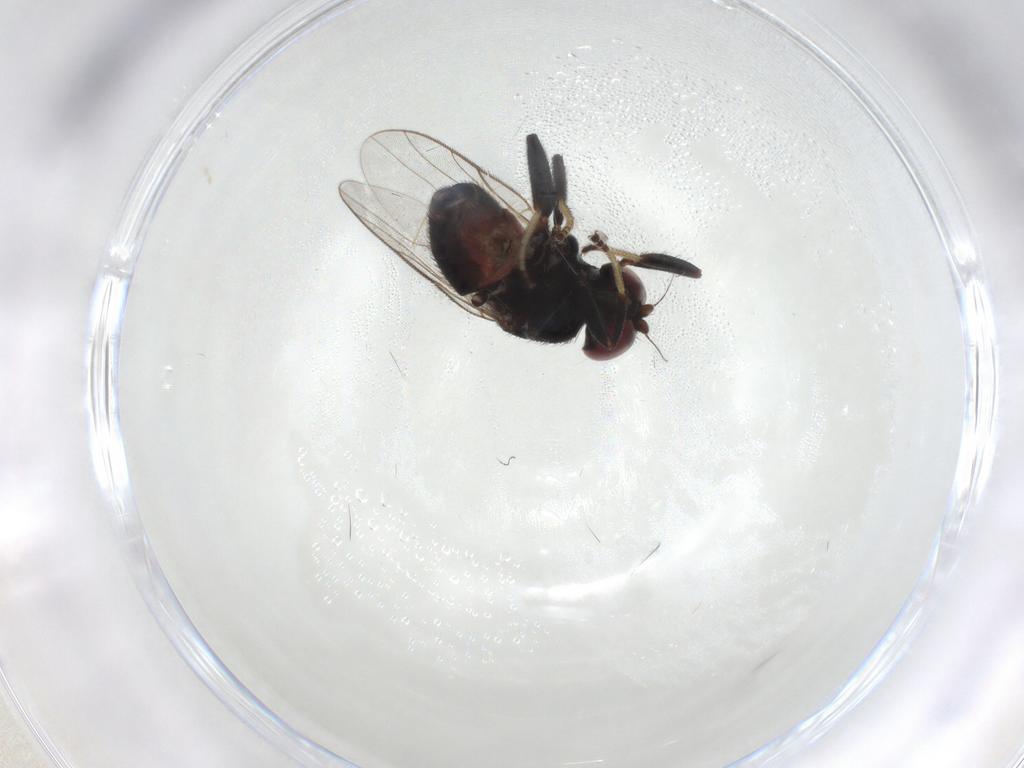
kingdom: Animalia
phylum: Arthropoda
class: Insecta
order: Diptera
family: Chloropidae
